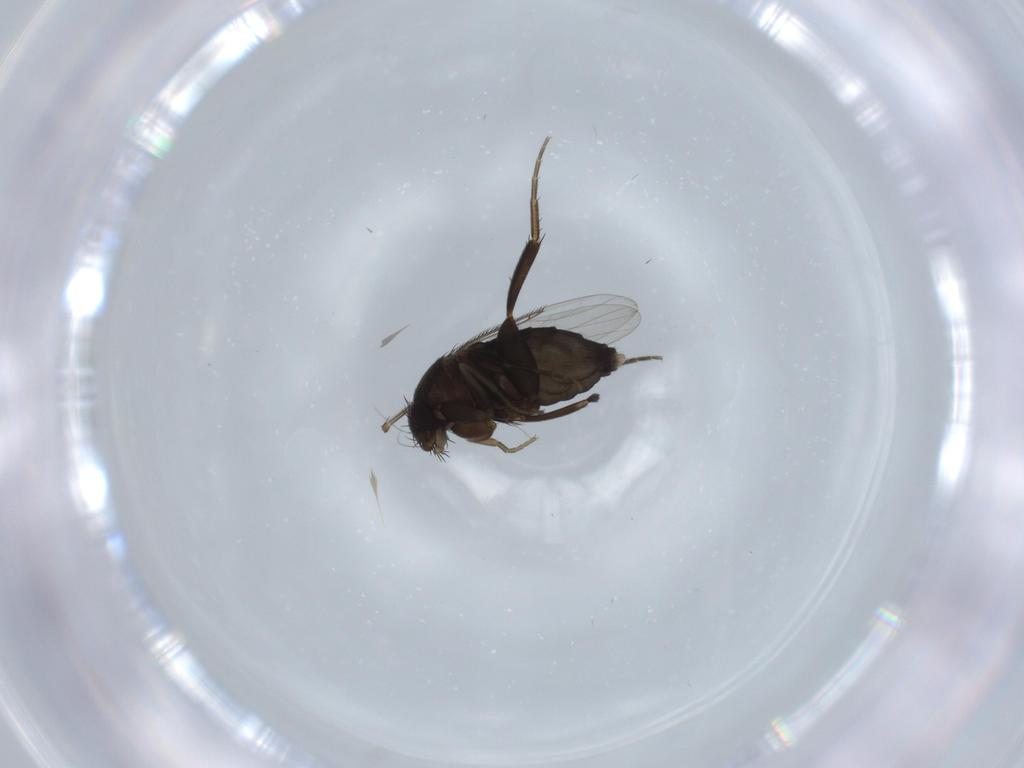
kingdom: Animalia
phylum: Arthropoda
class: Insecta
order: Diptera
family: Phoridae
